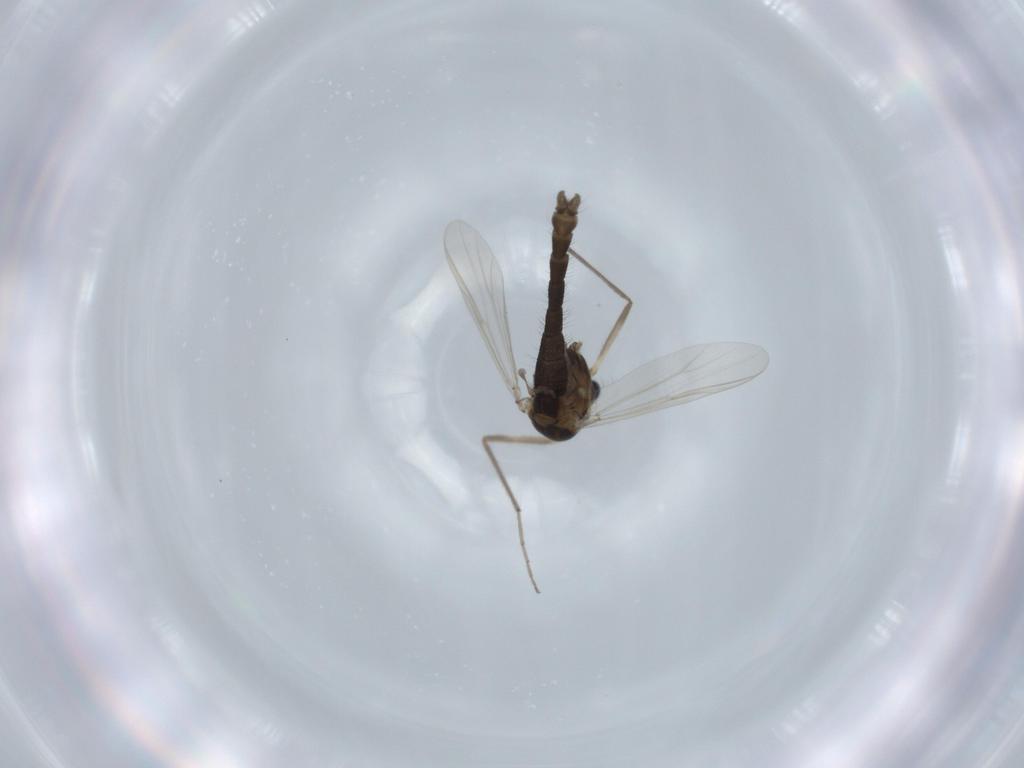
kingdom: Animalia
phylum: Arthropoda
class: Insecta
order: Diptera
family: Chironomidae
